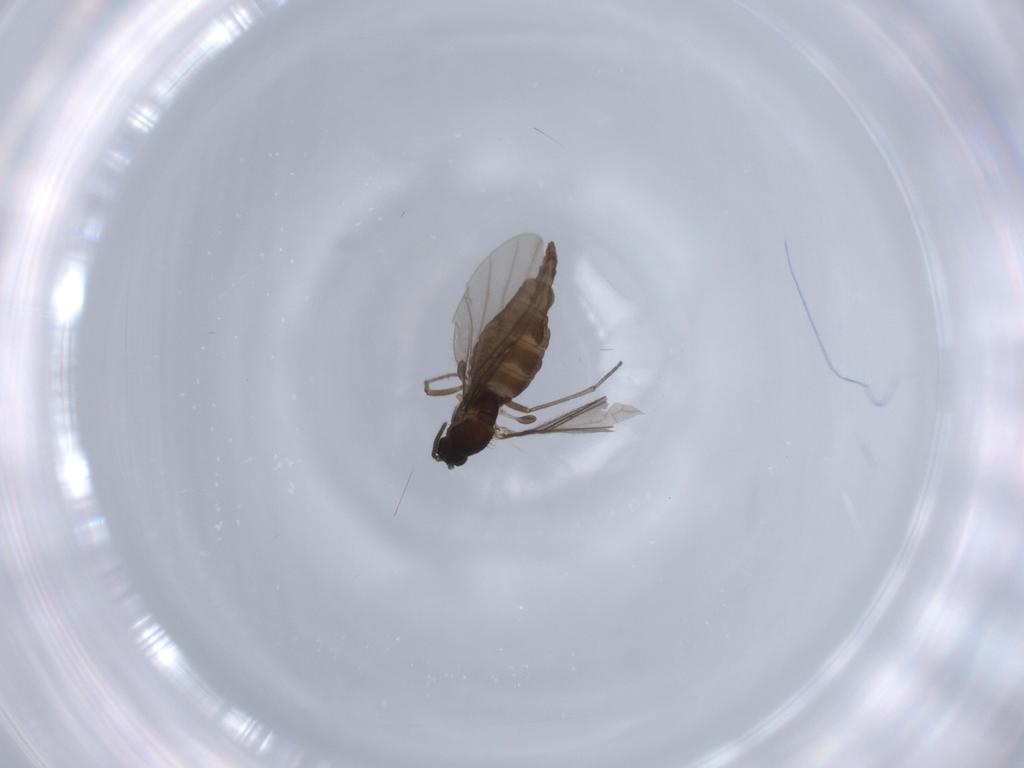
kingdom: Animalia
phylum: Arthropoda
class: Insecta
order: Diptera
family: Sciaridae
